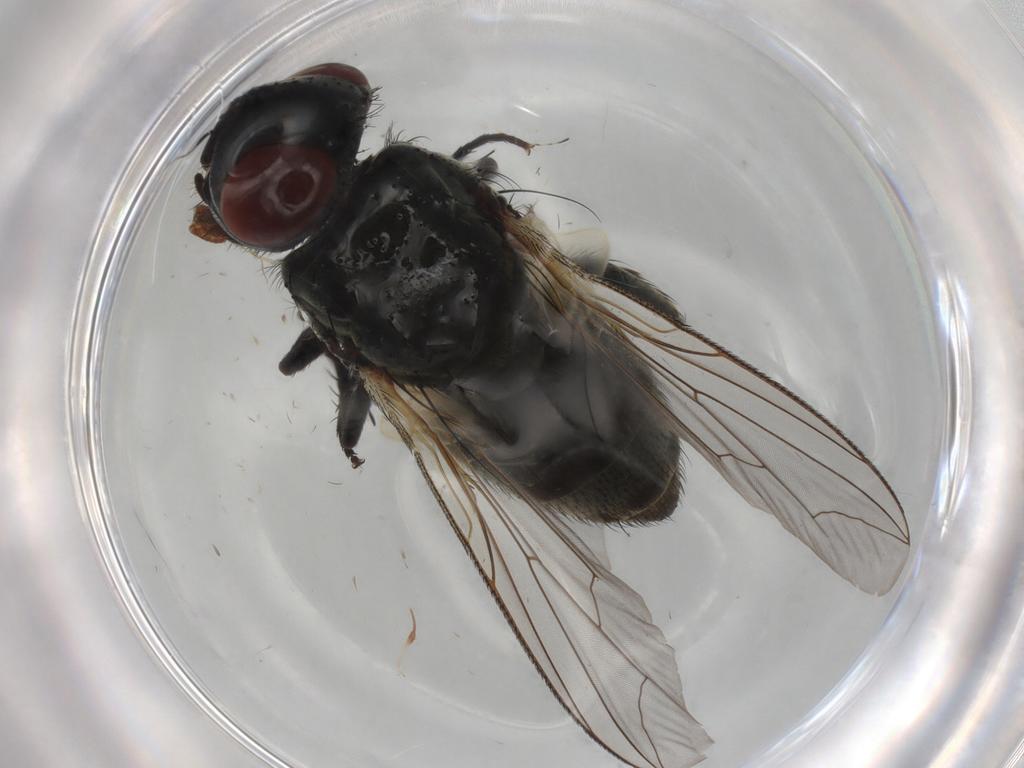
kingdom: Animalia
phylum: Arthropoda
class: Insecta
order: Diptera
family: Sarcophagidae
